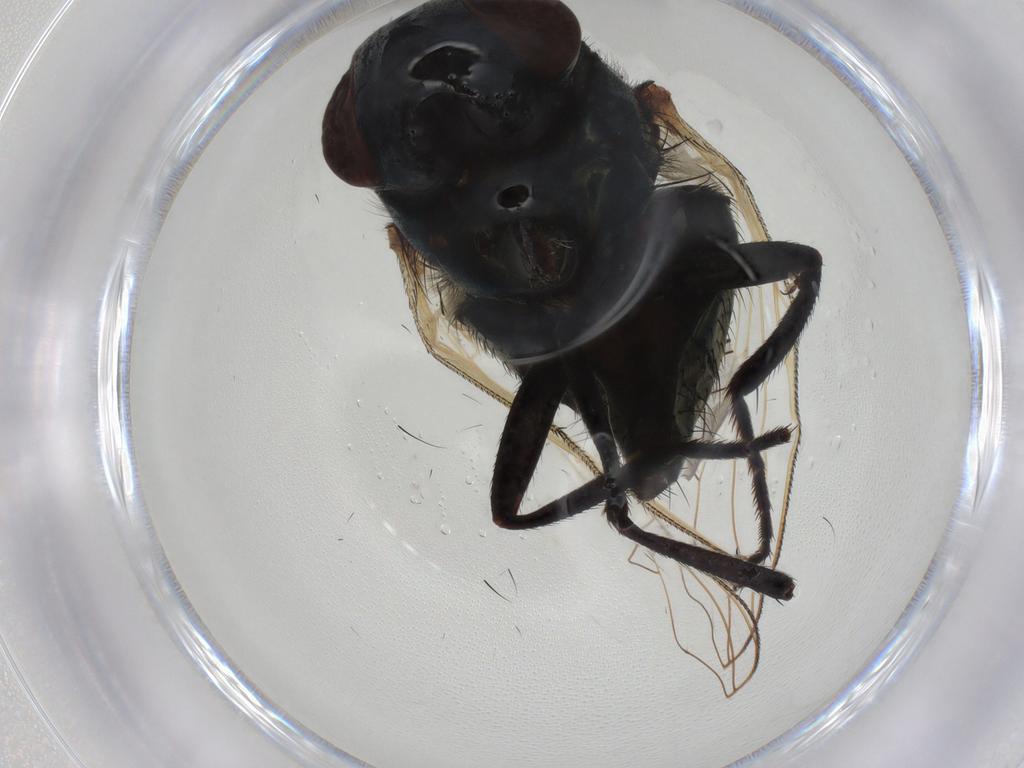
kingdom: Animalia
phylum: Arthropoda
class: Insecta
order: Diptera
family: Muscidae
